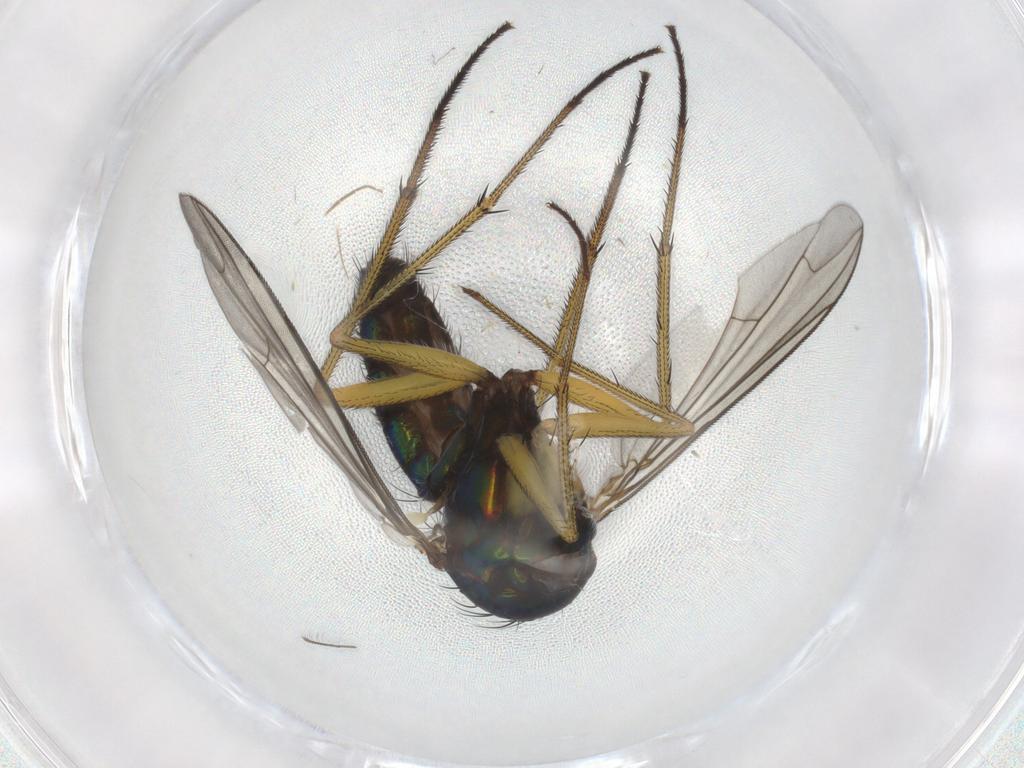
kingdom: Animalia
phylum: Arthropoda
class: Insecta
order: Diptera
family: Dolichopodidae
